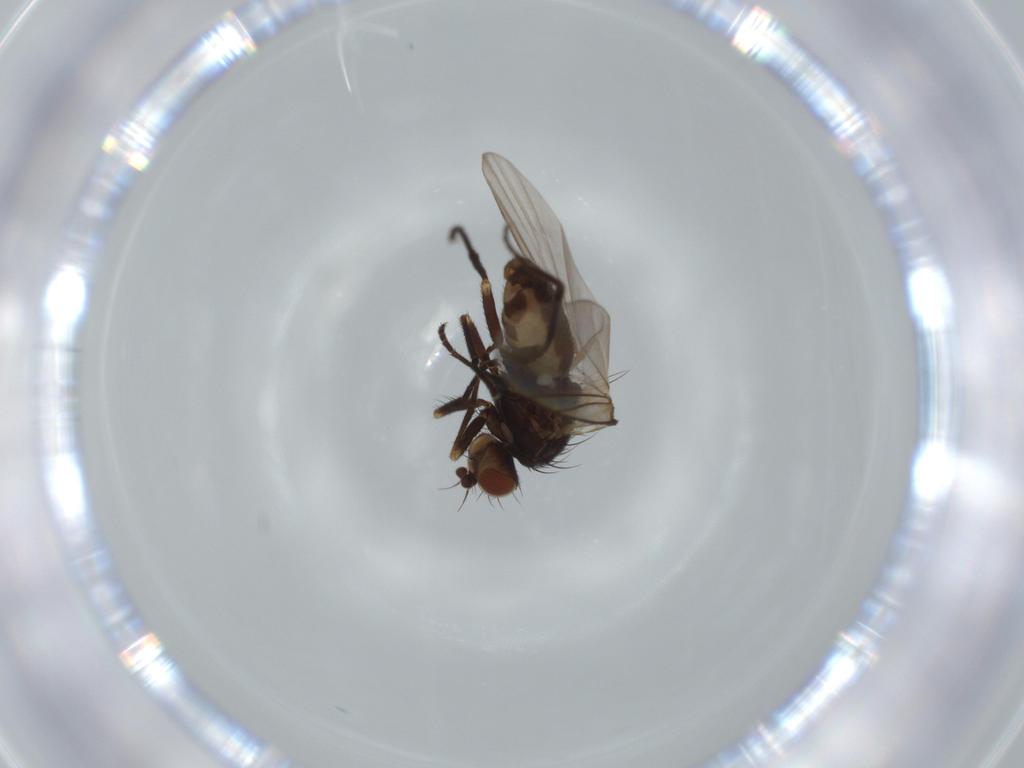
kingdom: Animalia
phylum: Arthropoda
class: Insecta
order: Diptera
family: Agromyzidae
